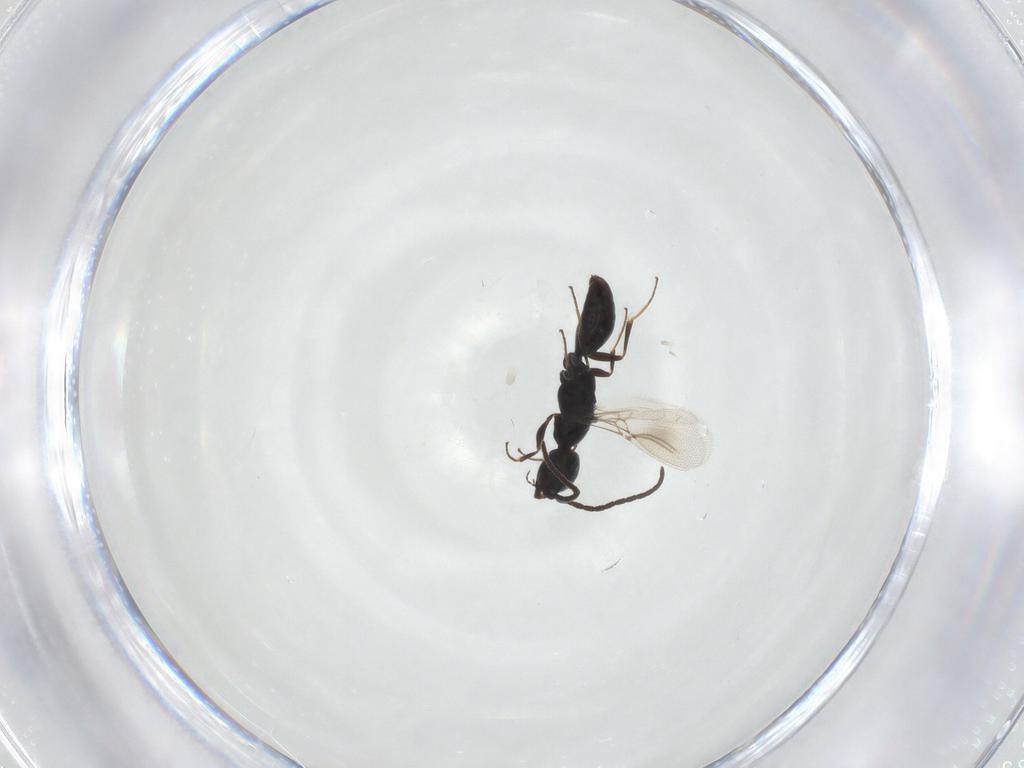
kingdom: Animalia
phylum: Arthropoda
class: Insecta
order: Hymenoptera
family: Bethylidae
